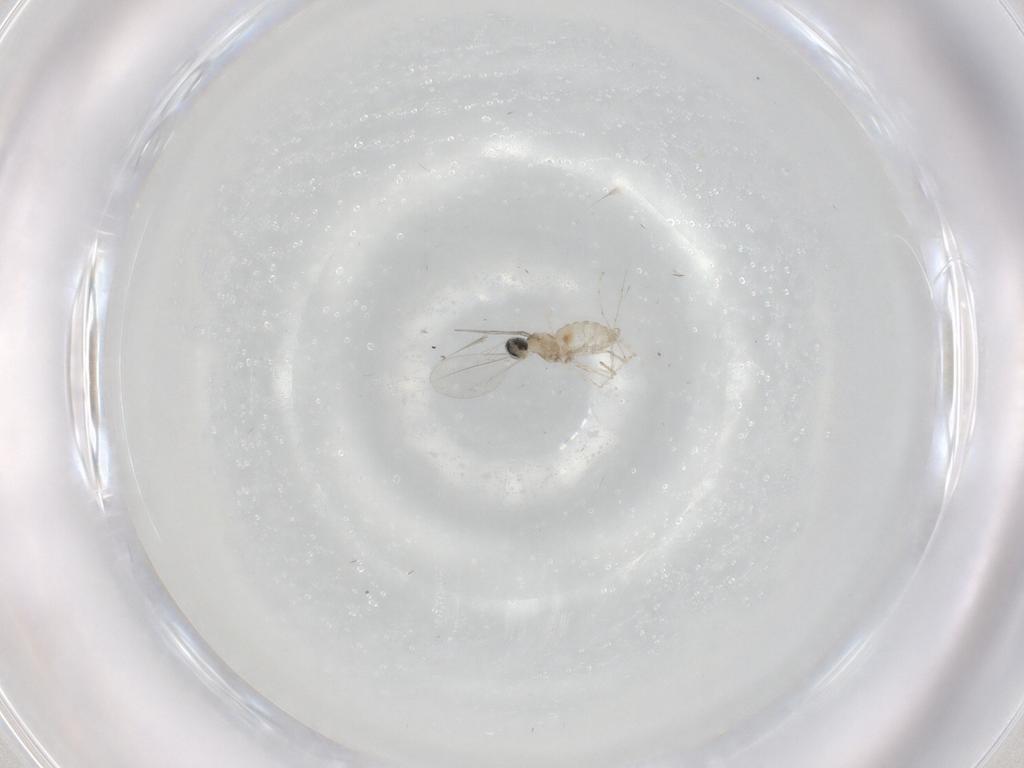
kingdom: Animalia
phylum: Arthropoda
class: Insecta
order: Diptera
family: Cecidomyiidae
